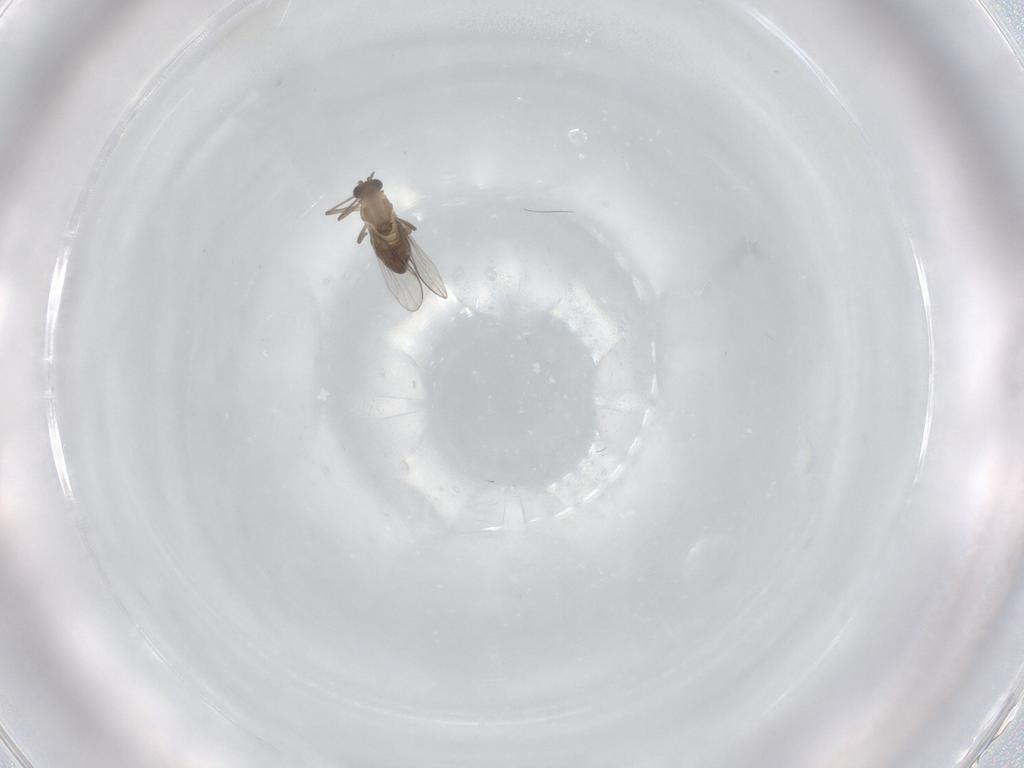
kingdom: Animalia
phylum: Arthropoda
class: Insecta
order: Diptera
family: Chironomidae
